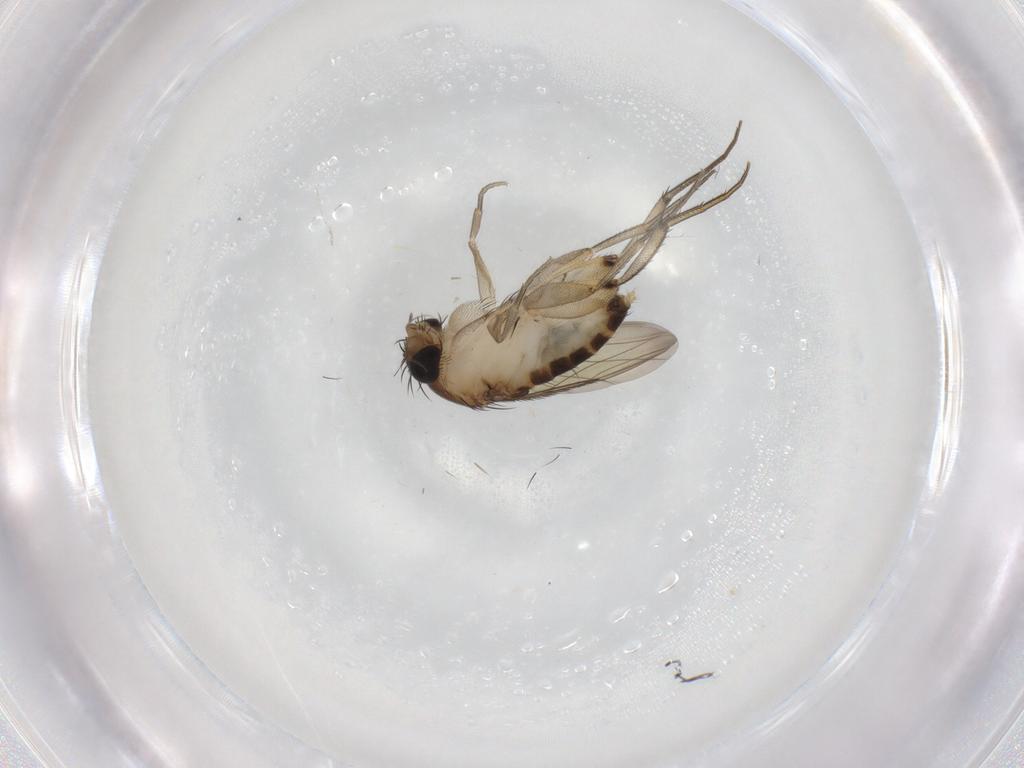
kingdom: Animalia
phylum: Arthropoda
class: Insecta
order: Diptera
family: Phoridae
